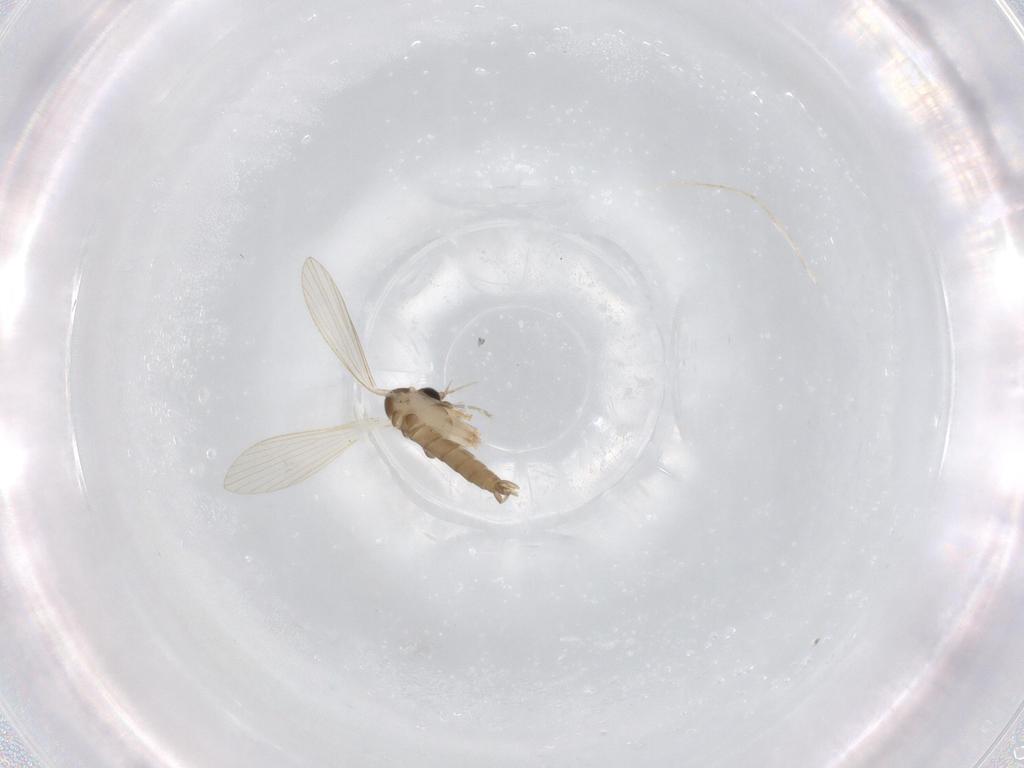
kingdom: Animalia
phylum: Arthropoda
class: Insecta
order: Diptera
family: Psychodidae
